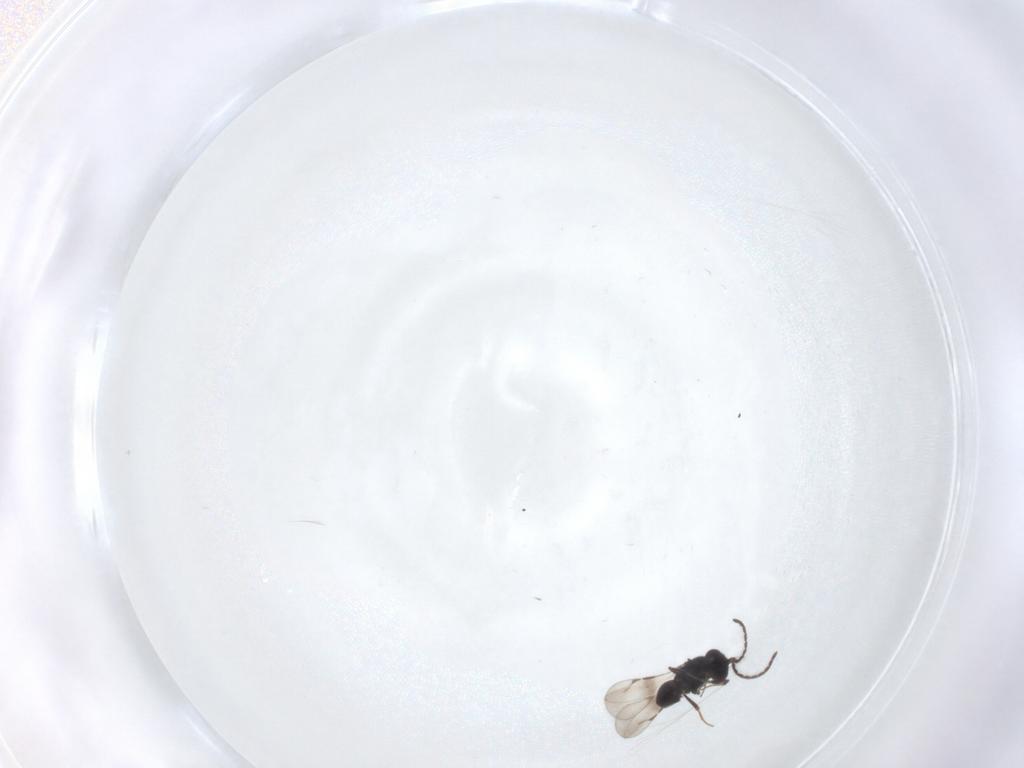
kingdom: Animalia
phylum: Arthropoda
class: Insecta
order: Hymenoptera
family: Ceraphronidae
